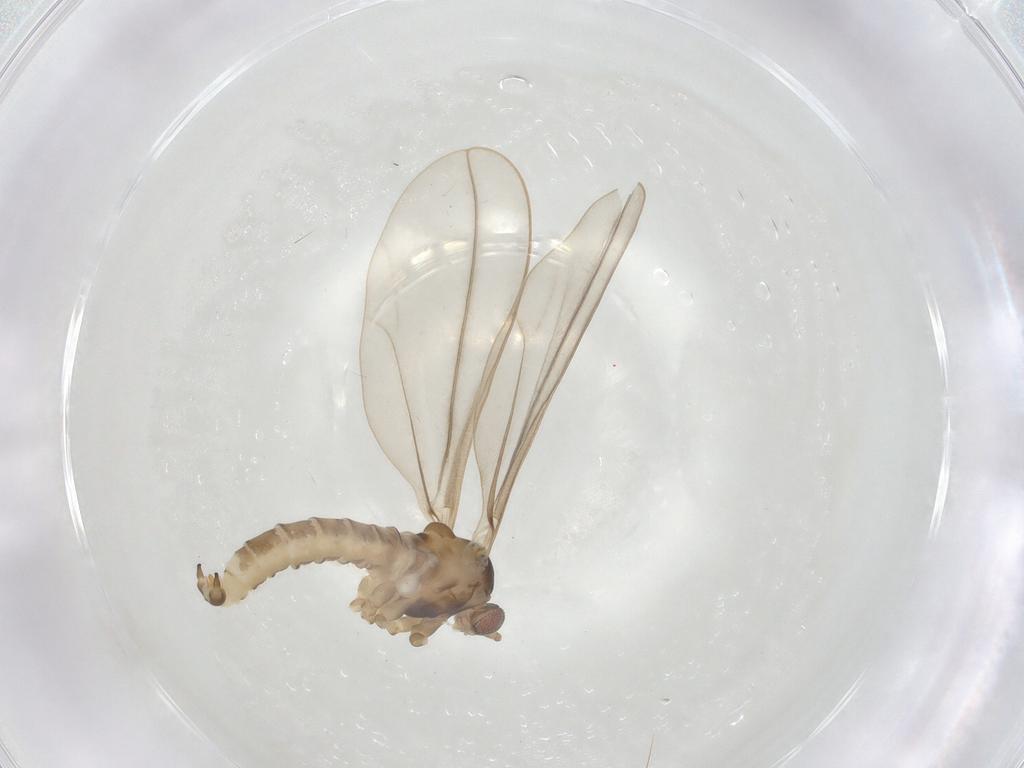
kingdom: Animalia
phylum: Arthropoda
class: Insecta
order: Diptera
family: Cecidomyiidae
